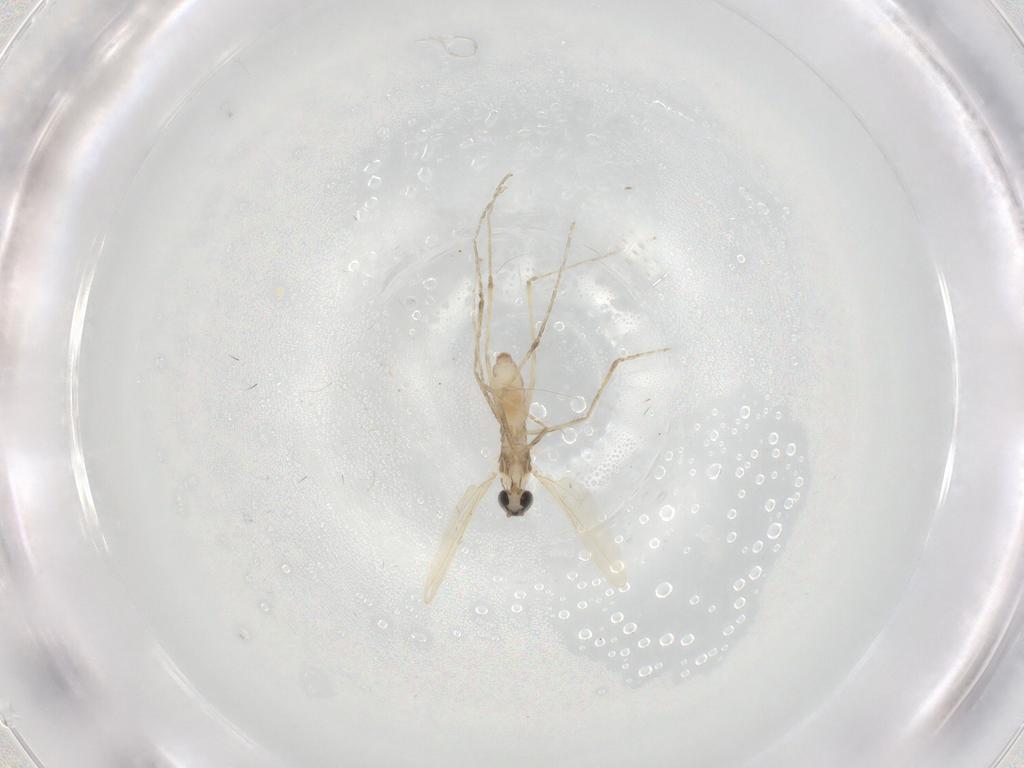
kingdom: Animalia
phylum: Arthropoda
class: Insecta
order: Diptera
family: Cecidomyiidae
